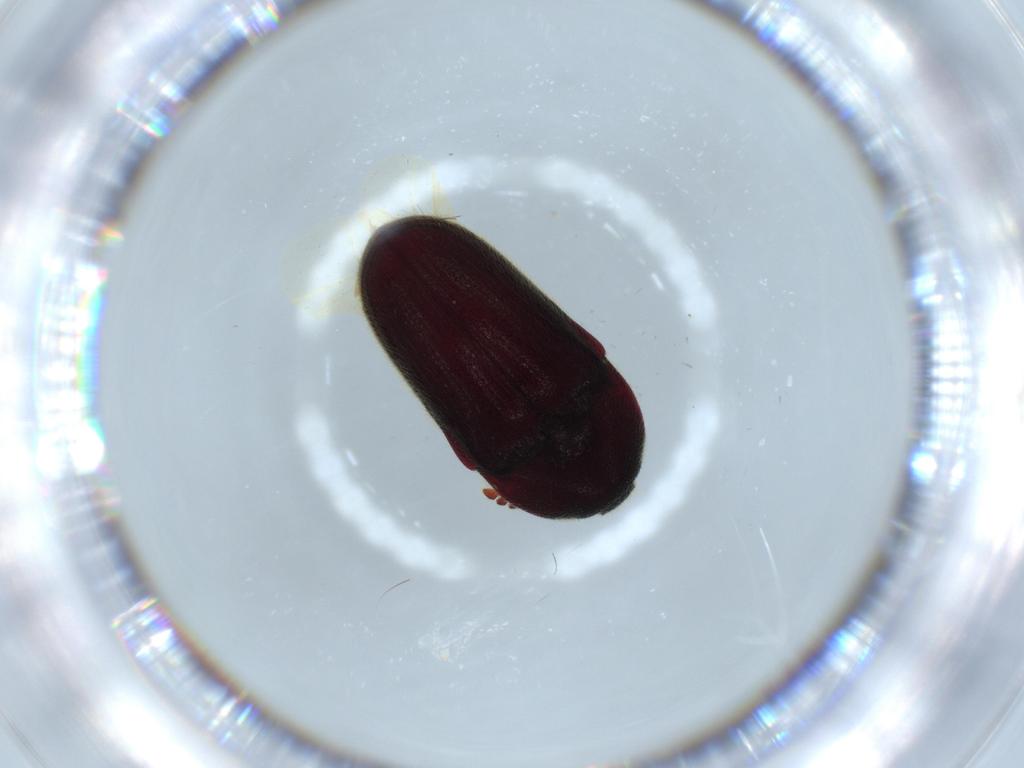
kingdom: Animalia
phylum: Arthropoda
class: Insecta
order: Coleoptera
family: Throscidae
